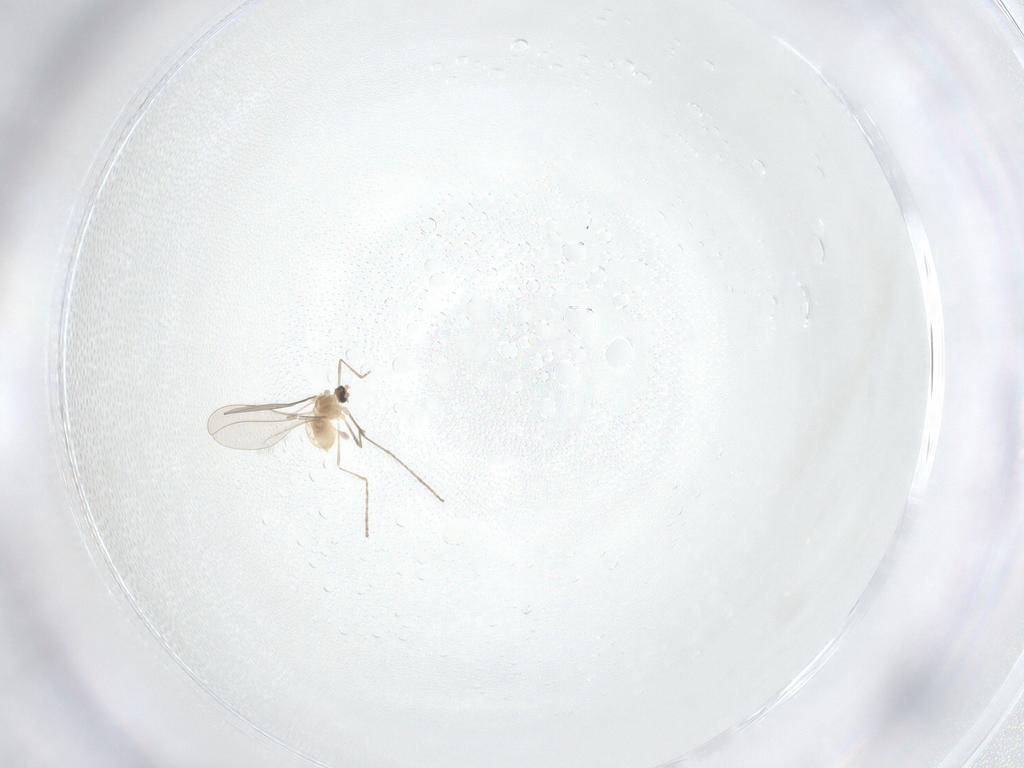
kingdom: Animalia
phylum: Arthropoda
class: Insecta
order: Diptera
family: Cecidomyiidae
